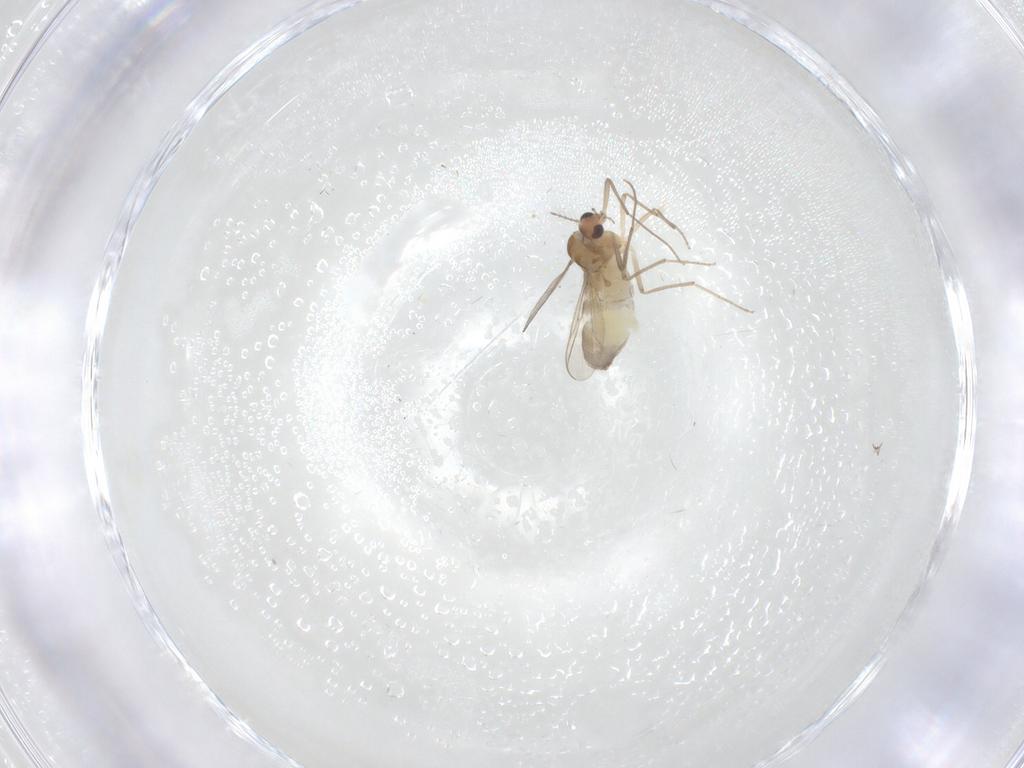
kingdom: Animalia
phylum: Arthropoda
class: Insecta
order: Diptera
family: Chironomidae
